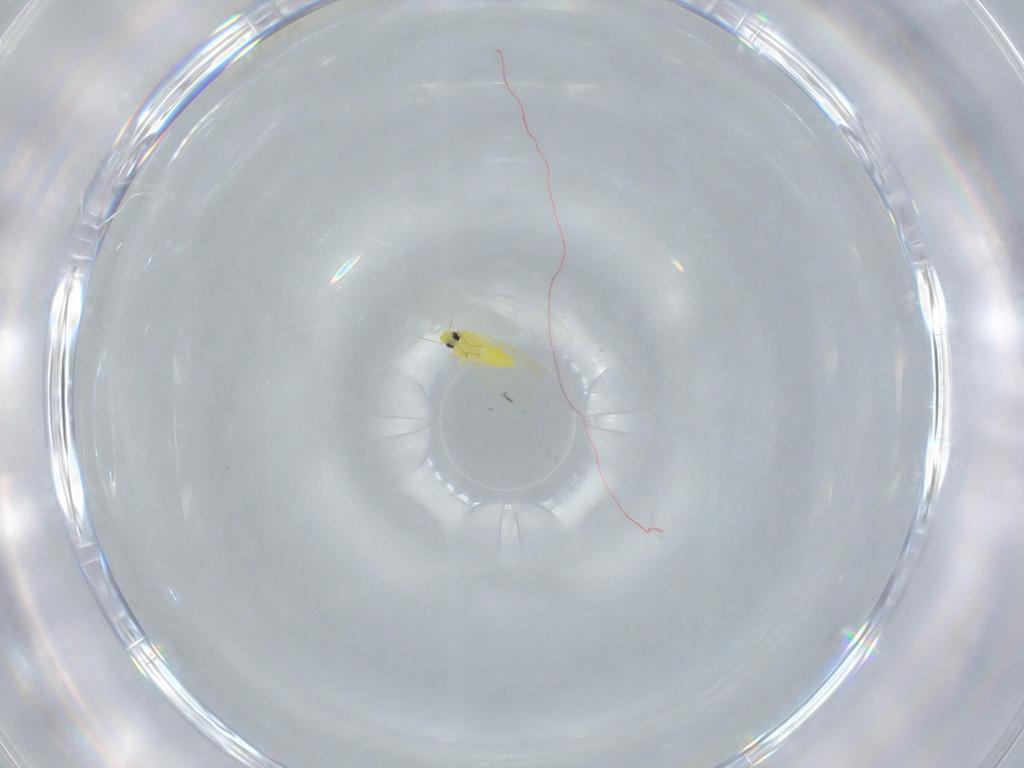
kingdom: Animalia
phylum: Arthropoda
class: Insecta
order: Hemiptera
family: Aleyrodidae
